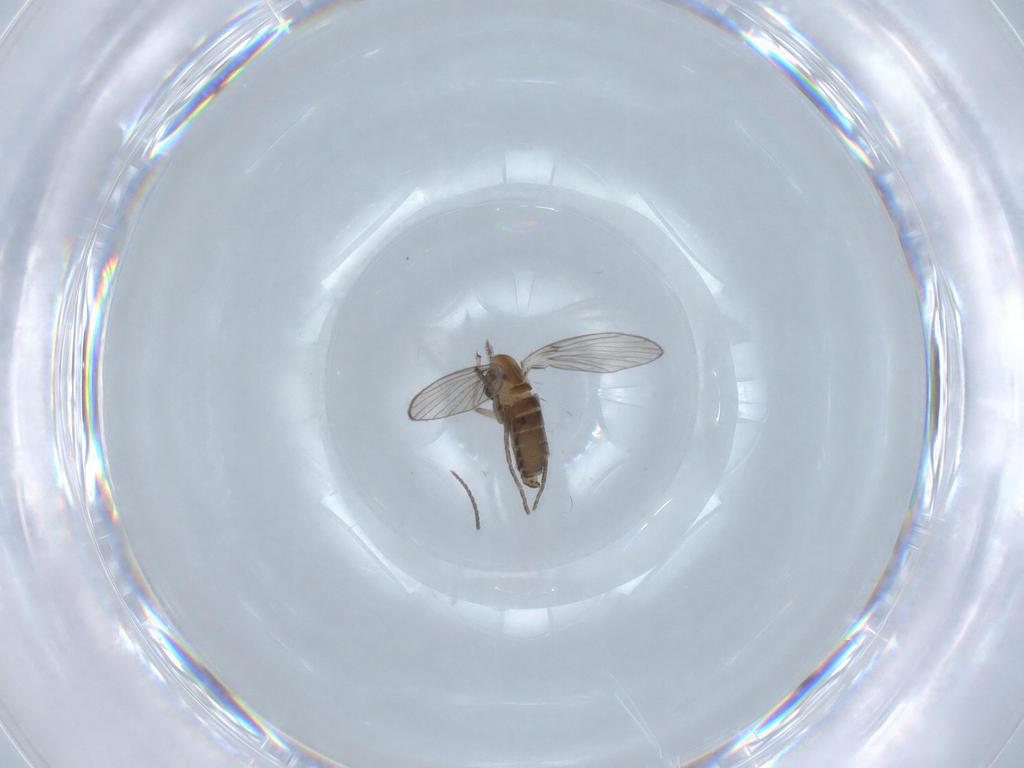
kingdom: Animalia
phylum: Arthropoda
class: Insecta
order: Diptera
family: Psychodidae
